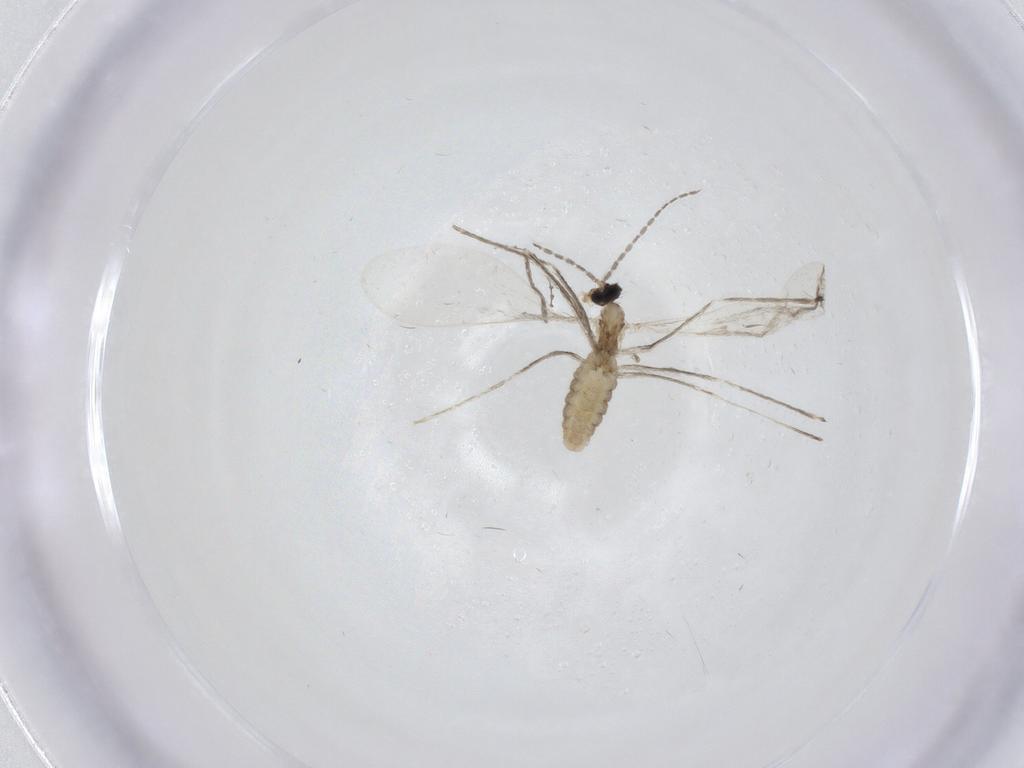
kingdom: Animalia
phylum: Arthropoda
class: Insecta
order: Diptera
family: Cecidomyiidae
